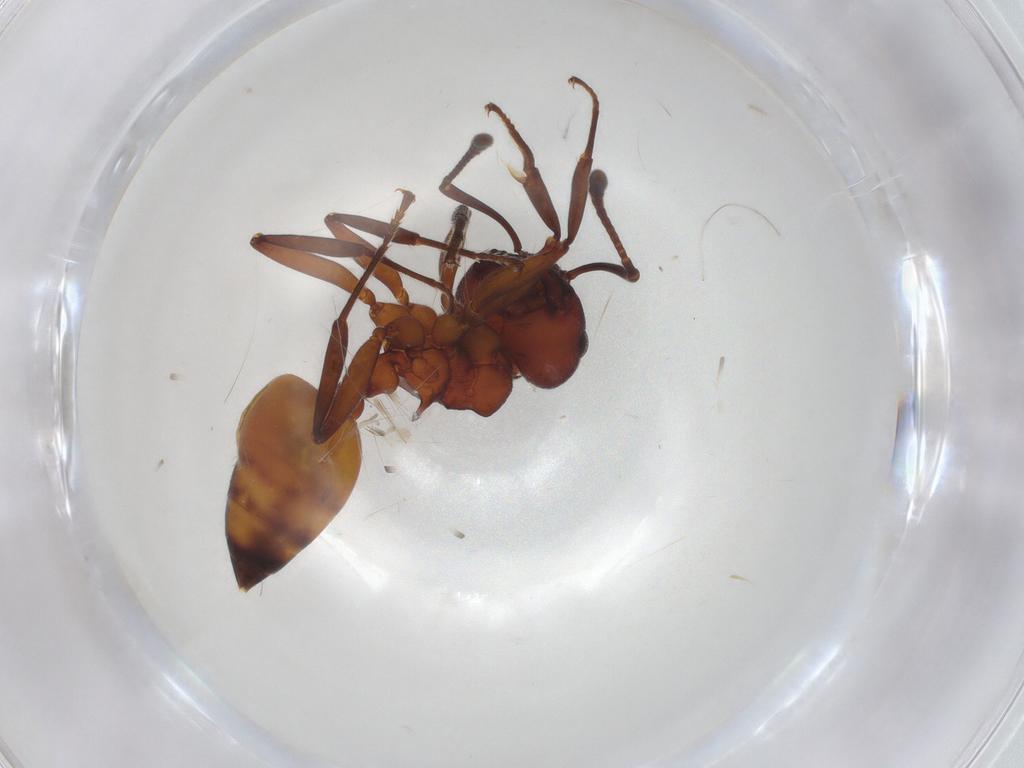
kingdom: Animalia
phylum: Arthropoda
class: Insecta
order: Hymenoptera
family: Formicidae
